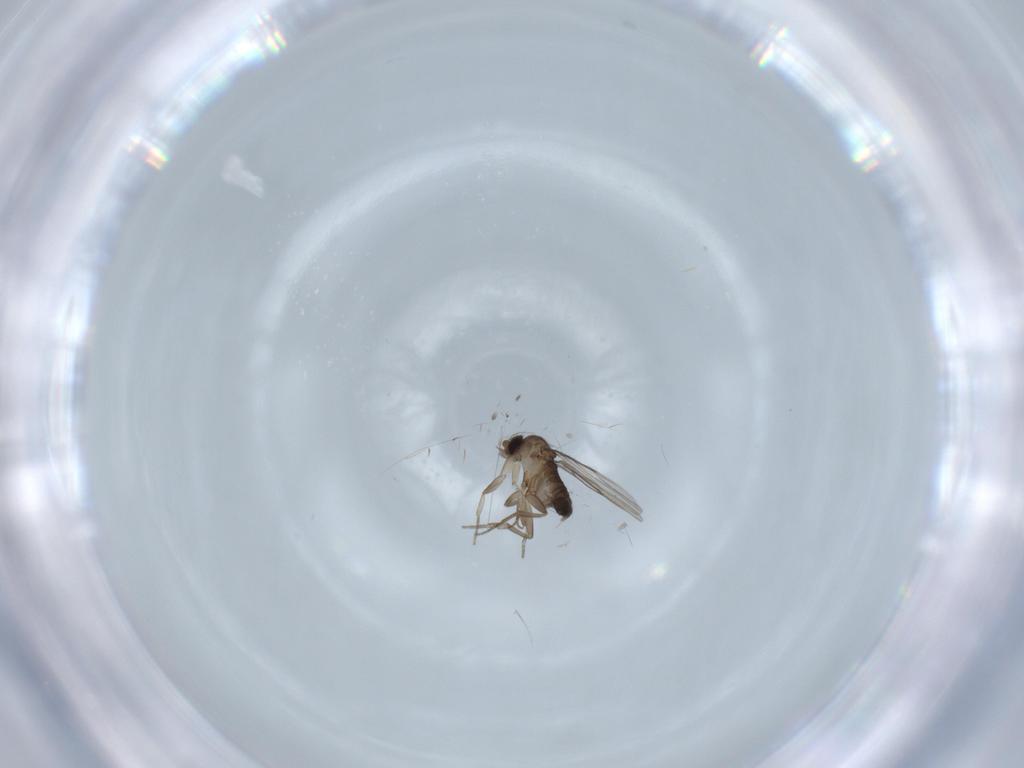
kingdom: Animalia
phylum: Arthropoda
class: Insecta
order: Diptera
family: Phoridae
